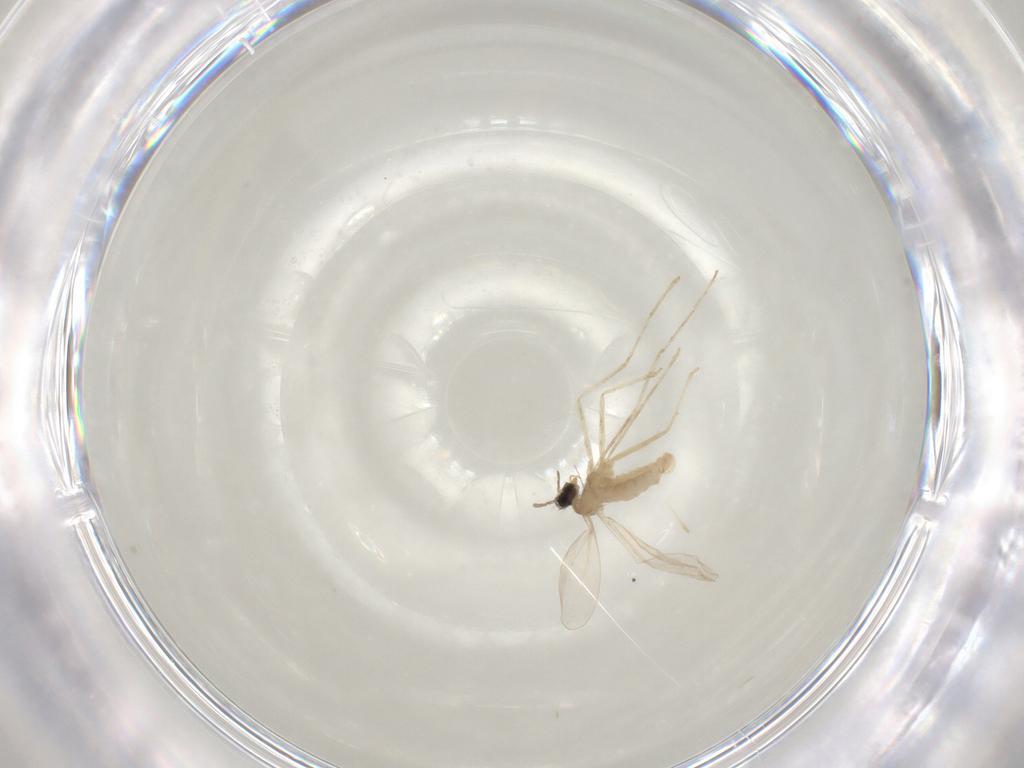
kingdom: Animalia
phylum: Arthropoda
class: Insecta
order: Diptera
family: Cecidomyiidae
